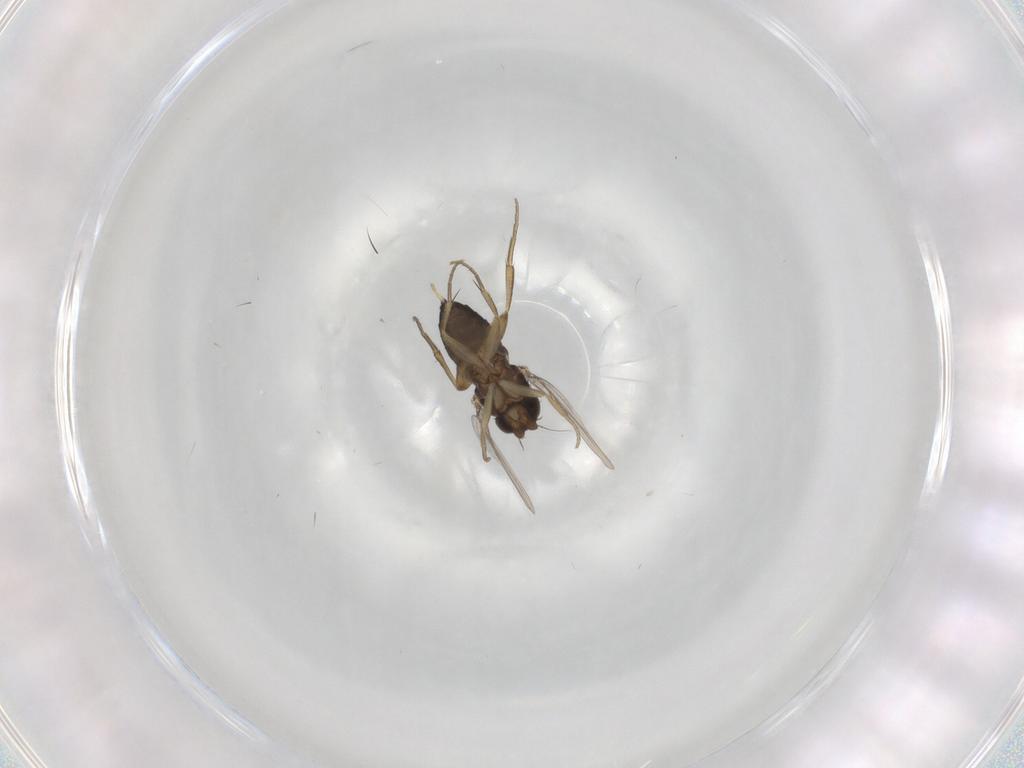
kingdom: Animalia
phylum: Arthropoda
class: Insecta
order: Diptera
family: Phoridae
